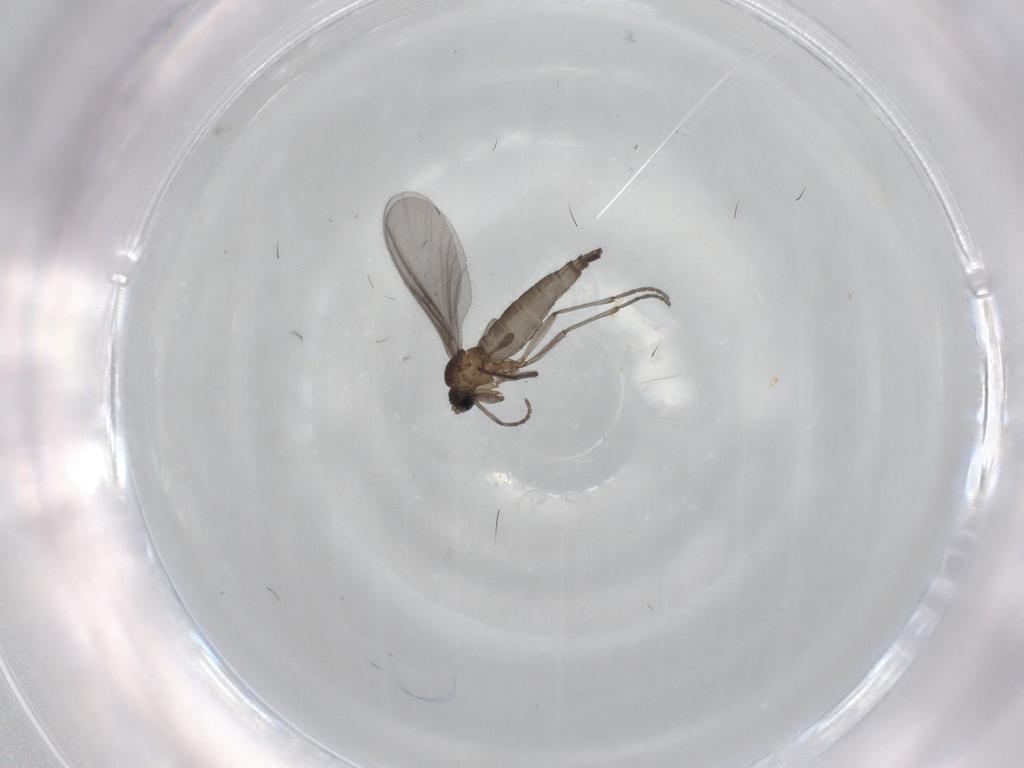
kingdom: Animalia
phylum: Arthropoda
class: Insecta
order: Diptera
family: Sciaridae
